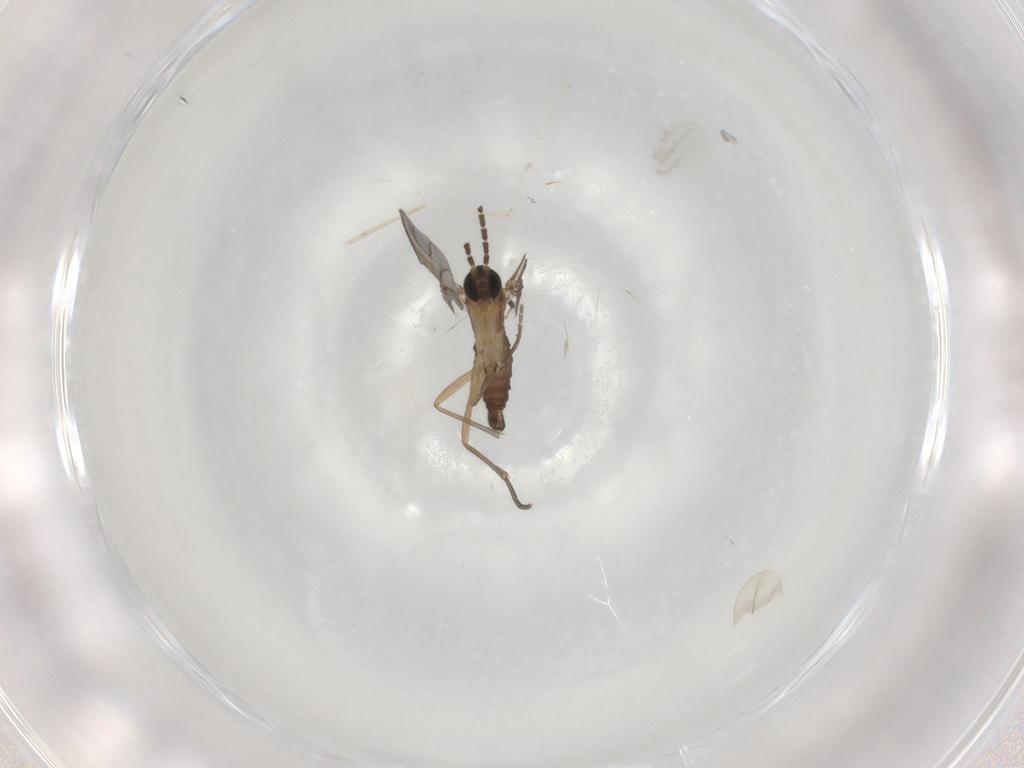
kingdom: Animalia
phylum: Arthropoda
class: Insecta
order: Diptera
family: Sciaridae
